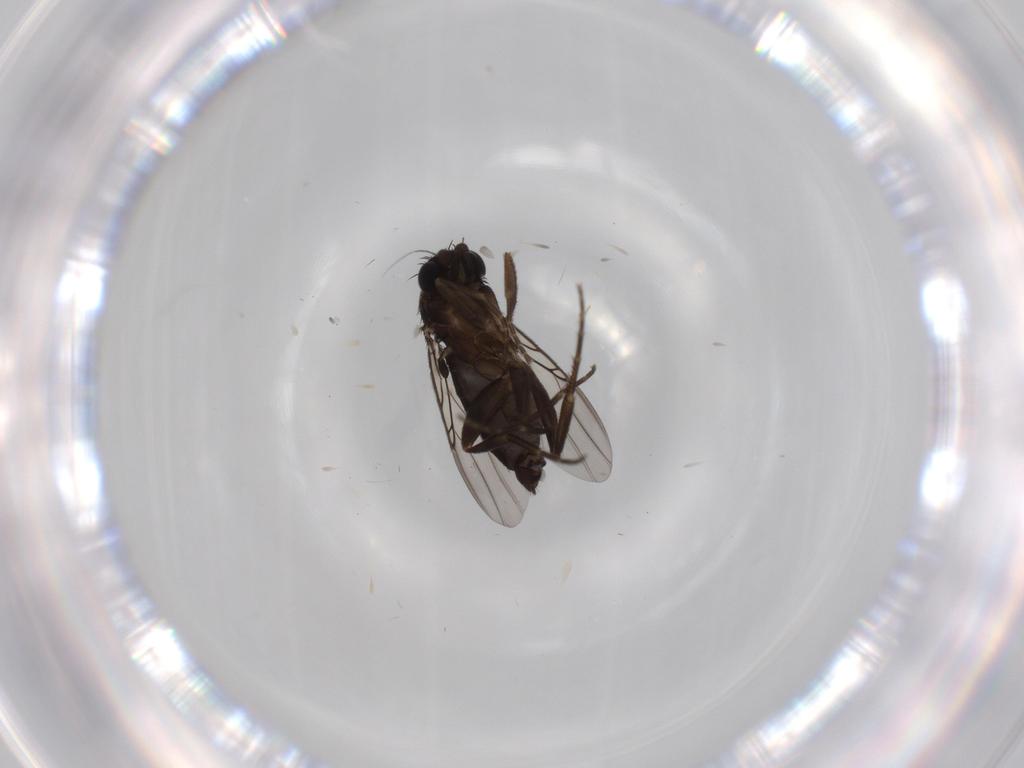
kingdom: Animalia
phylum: Arthropoda
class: Insecta
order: Diptera
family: Phoridae
